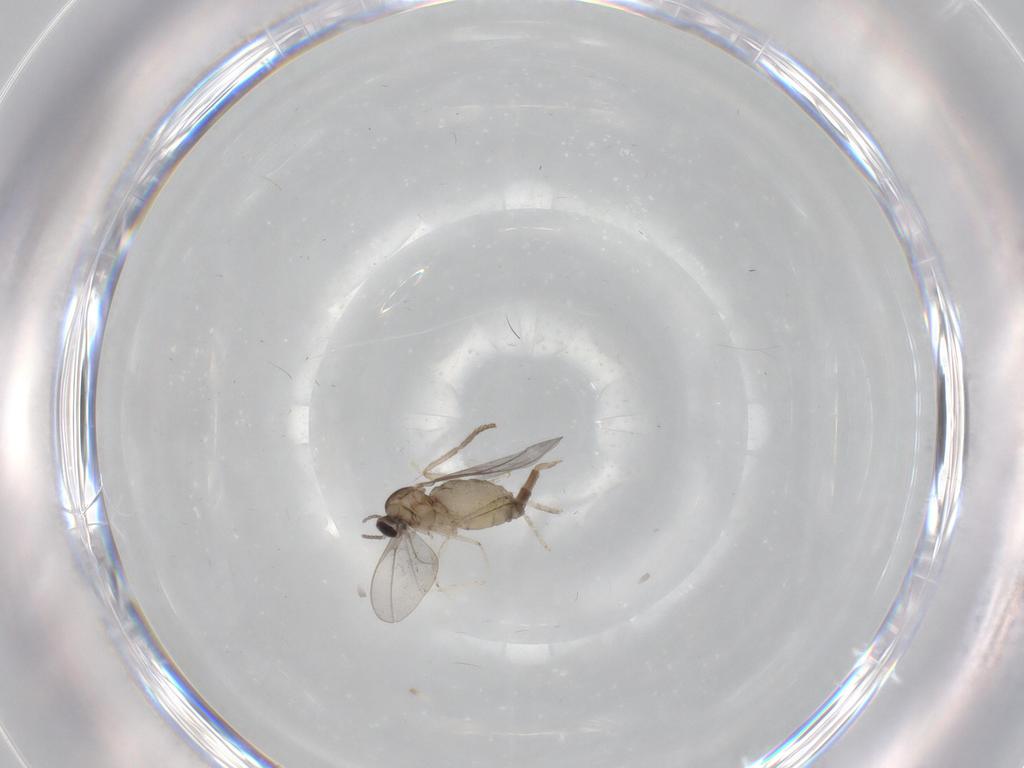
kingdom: Animalia
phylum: Arthropoda
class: Insecta
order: Diptera
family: Cecidomyiidae
